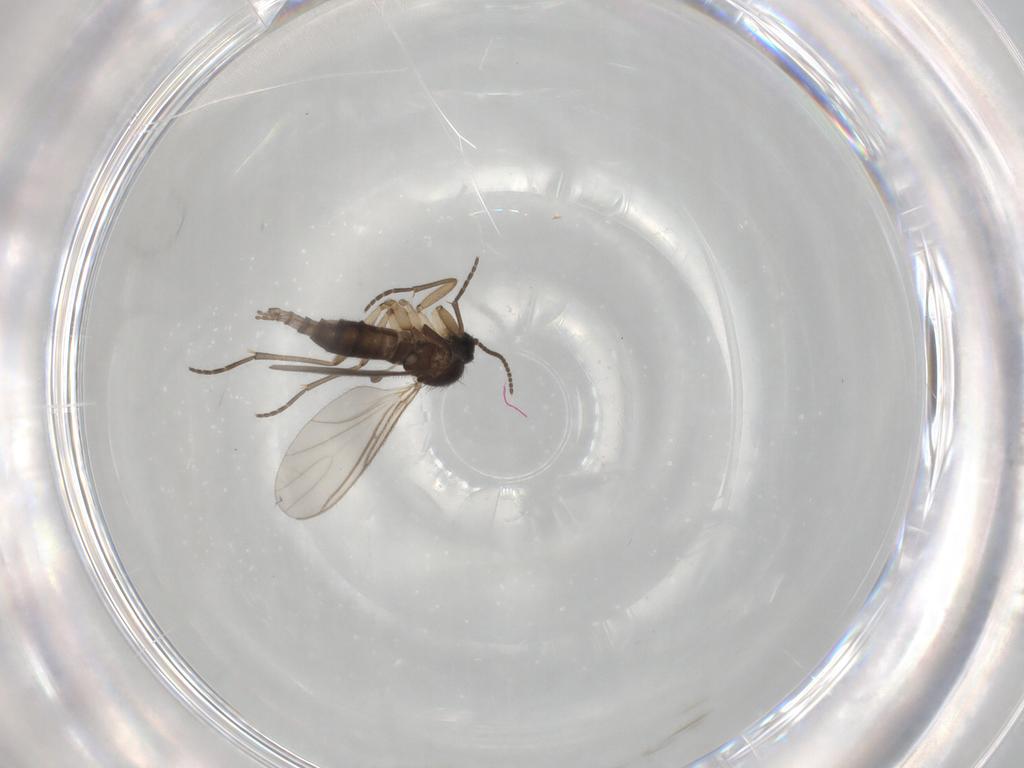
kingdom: Animalia
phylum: Arthropoda
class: Insecta
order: Diptera
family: Sciaridae
